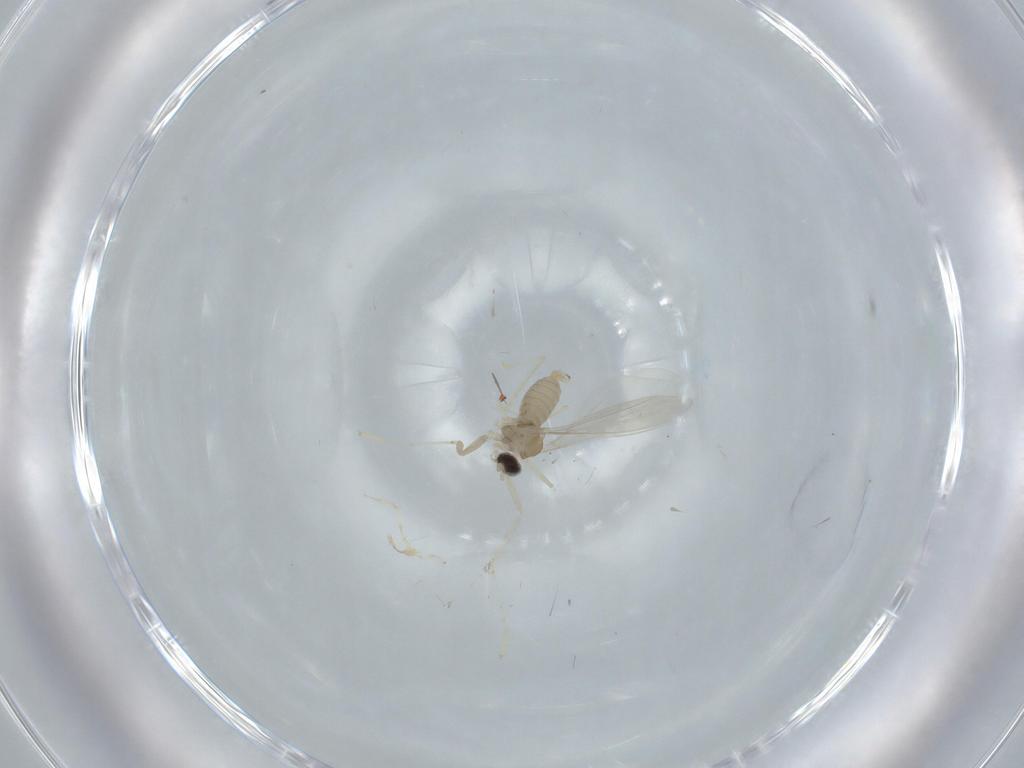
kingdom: Animalia
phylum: Arthropoda
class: Insecta
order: Diptera
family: Cecidomyiidae
